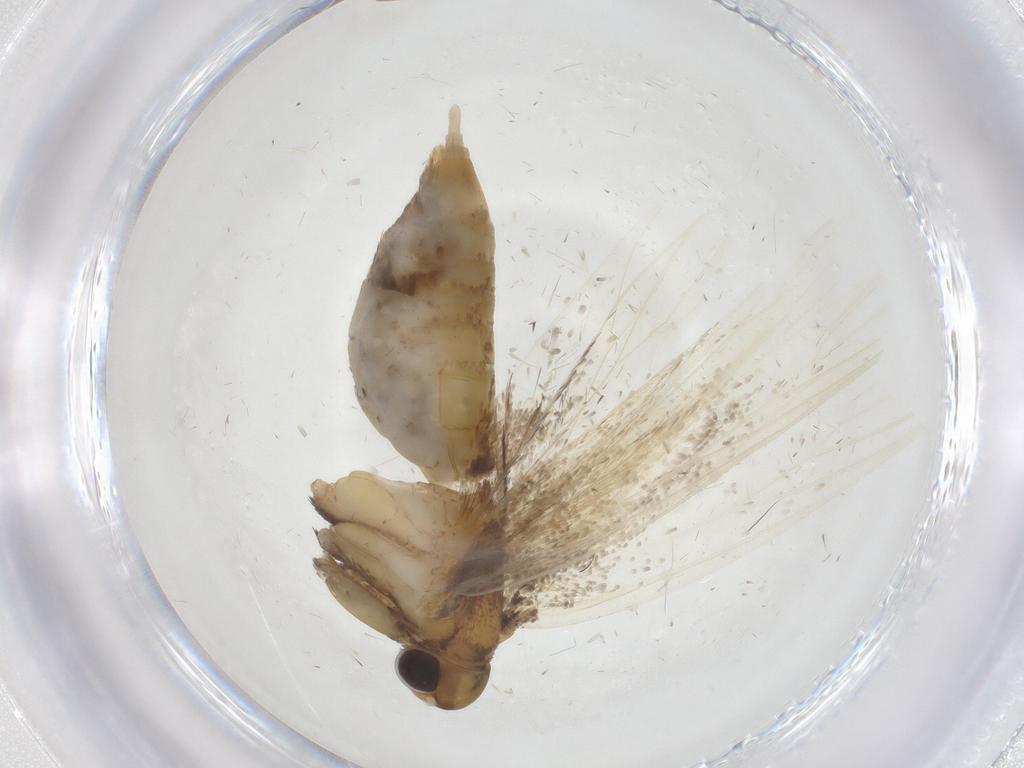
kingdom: Animalia
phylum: Arthropoda
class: Insecta
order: Lepidoptera
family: Lecithoceridae
